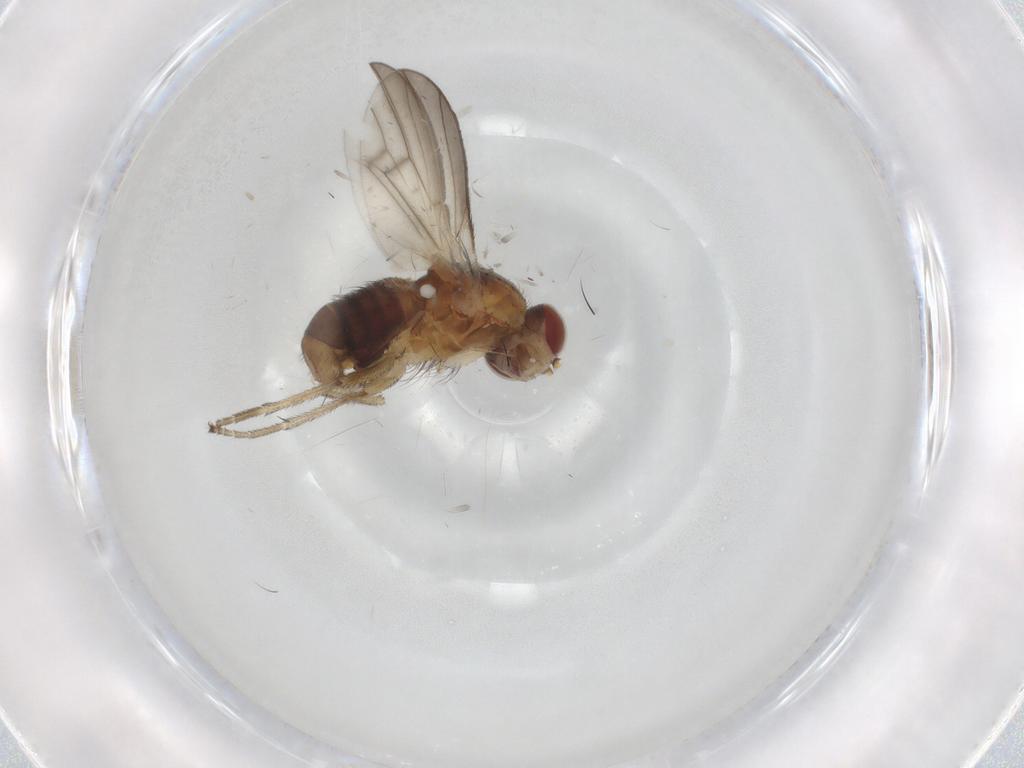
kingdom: Animalia
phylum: Arthropoda
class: Insecta
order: Diptera
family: Heleomyzidae
